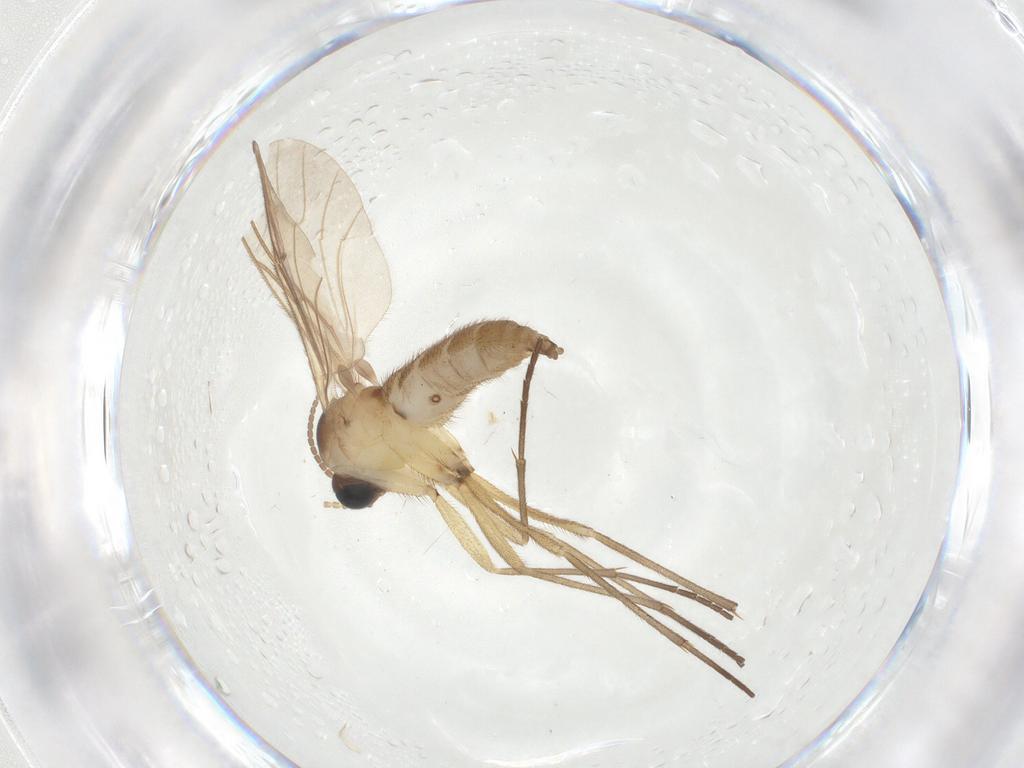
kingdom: Animalia
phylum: Arthropoda
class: Insecta
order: Diptera
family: Sciaridae
